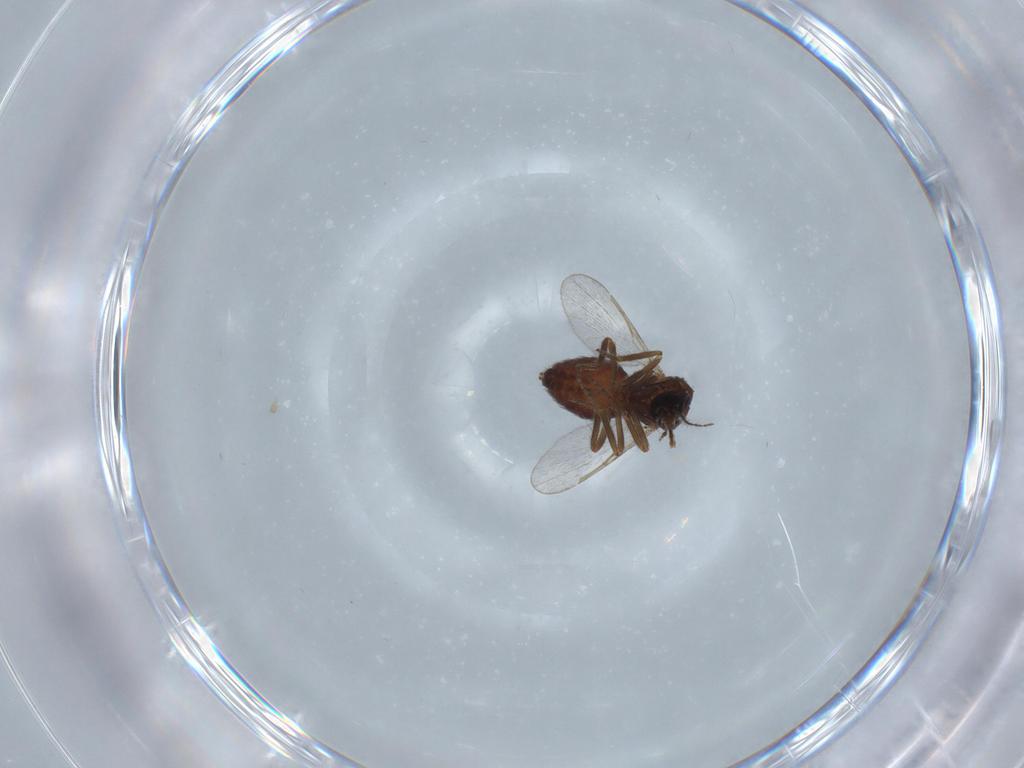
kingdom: Animalia
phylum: Arthropoda
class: Insecta
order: Diptera
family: Ceratopogonidae
